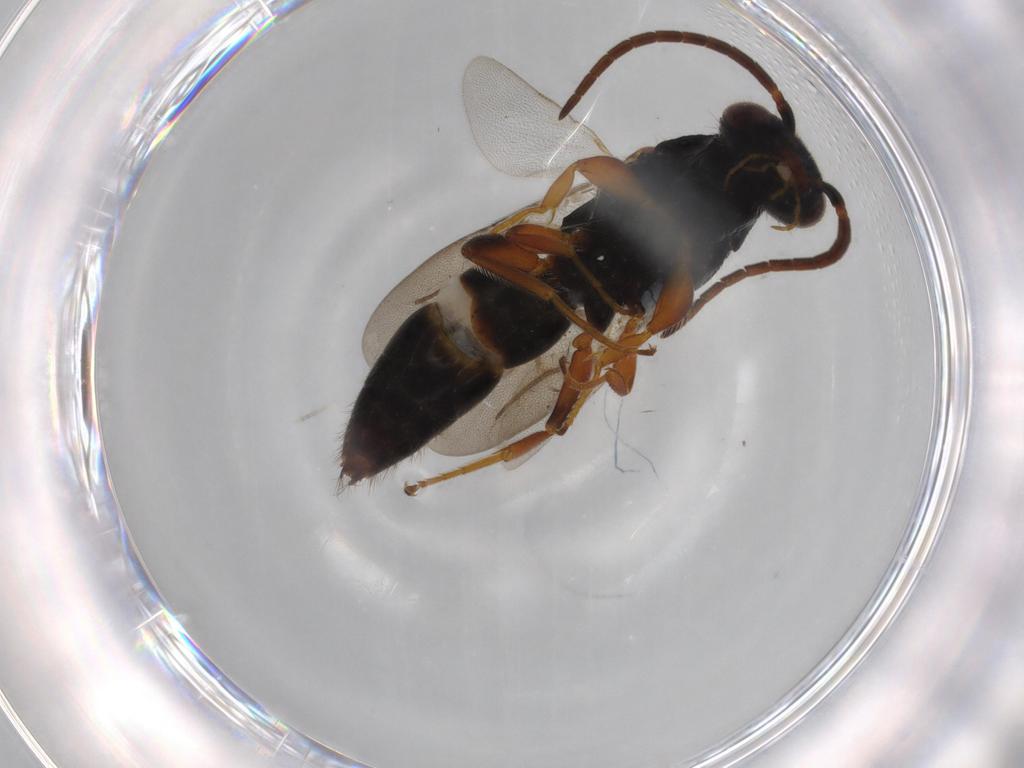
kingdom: Animalia
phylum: Arthropoda
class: Insecta
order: Hymenoptera
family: Bethylidae
